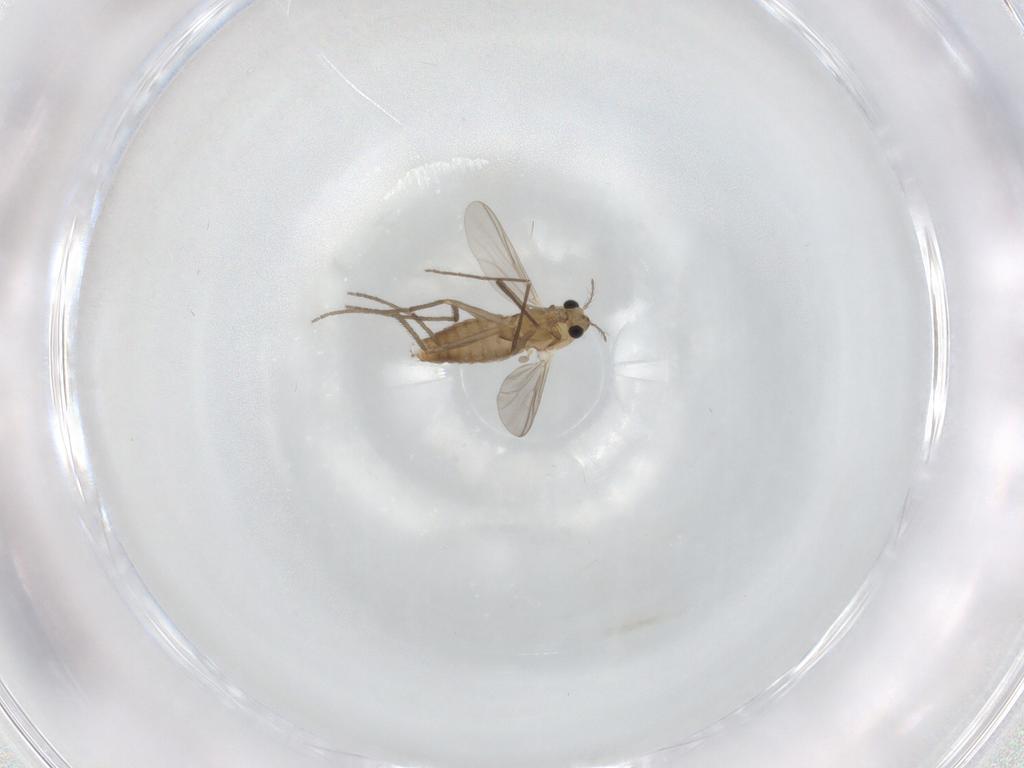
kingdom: Animalia
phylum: Arthropoda
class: Insecta
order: Diptera
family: Chironomidae
